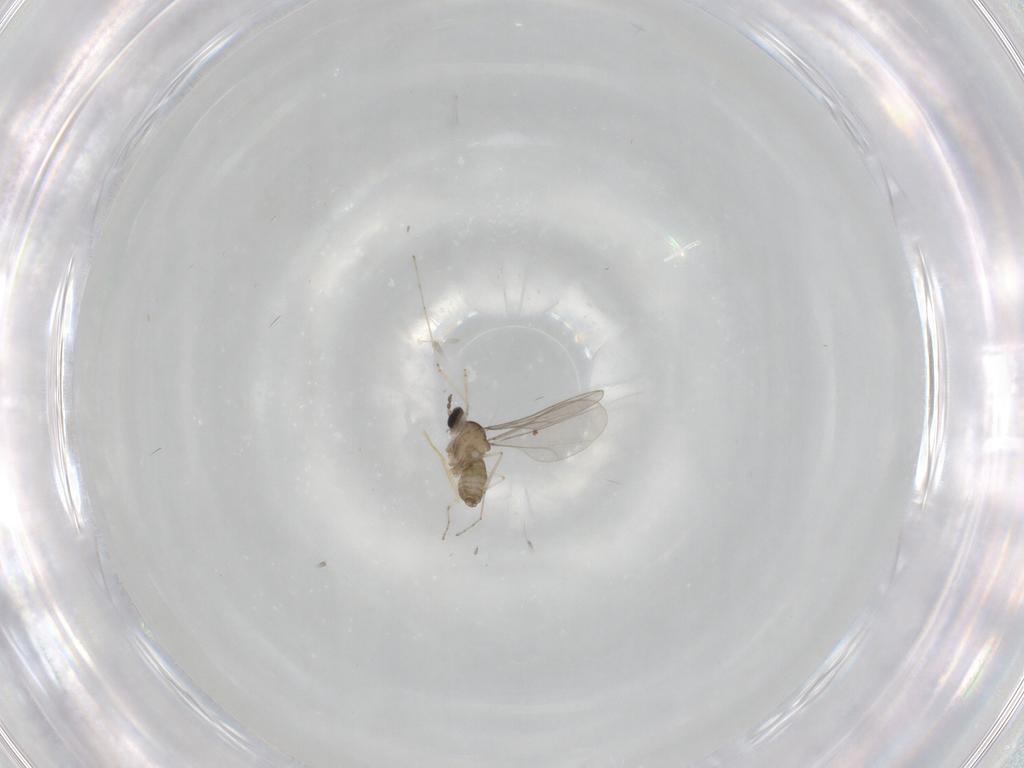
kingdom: Animalia
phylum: Arthropoda
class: Insecta
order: Diptera
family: Cecidomyiidae
